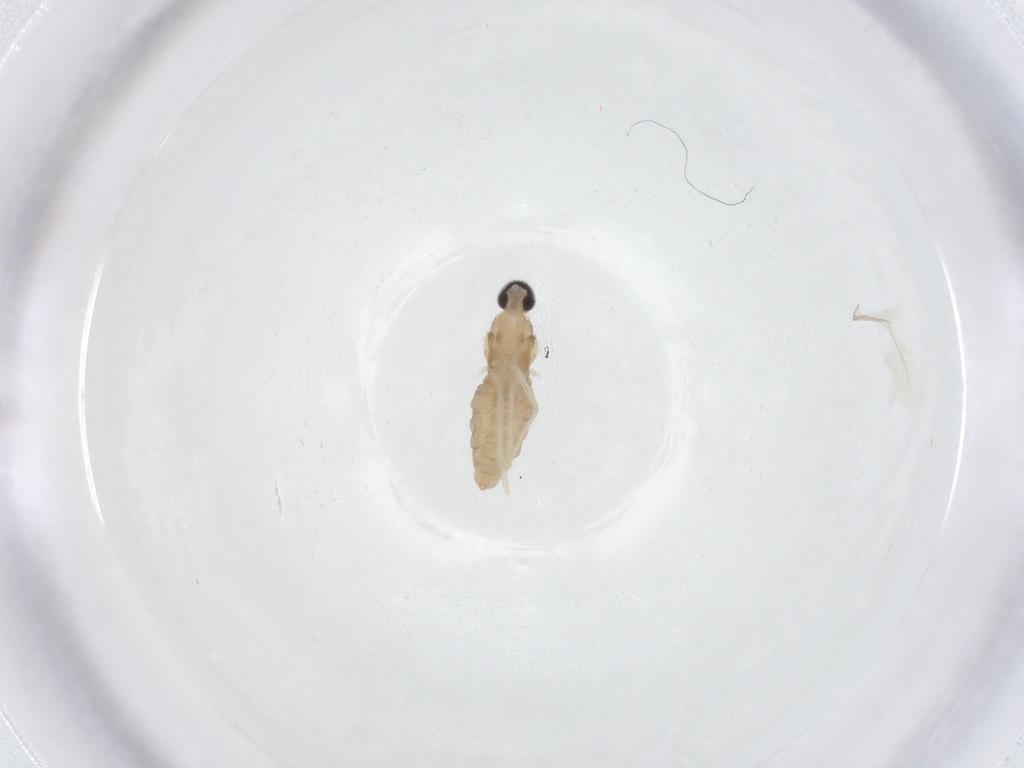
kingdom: Animalia
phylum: Arthropoda
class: Insecta
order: Diptera
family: Cecidomyiidae
